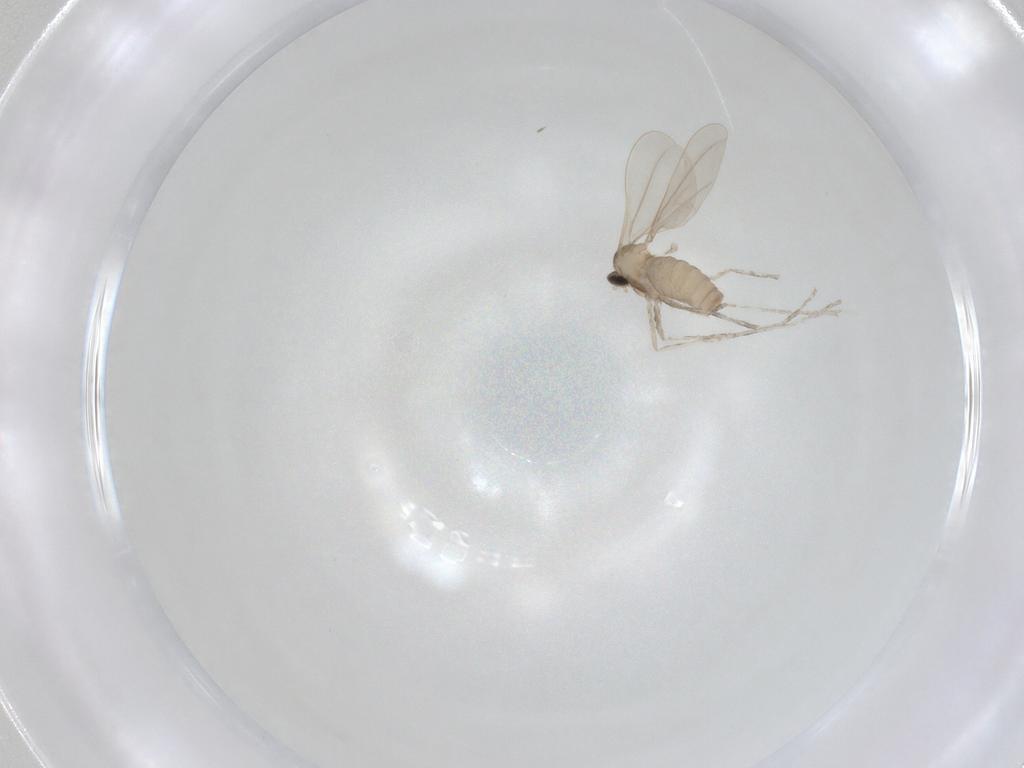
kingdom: Animalia
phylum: Arthropoda
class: Insecta
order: Diptera
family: Cecidomyiidae
